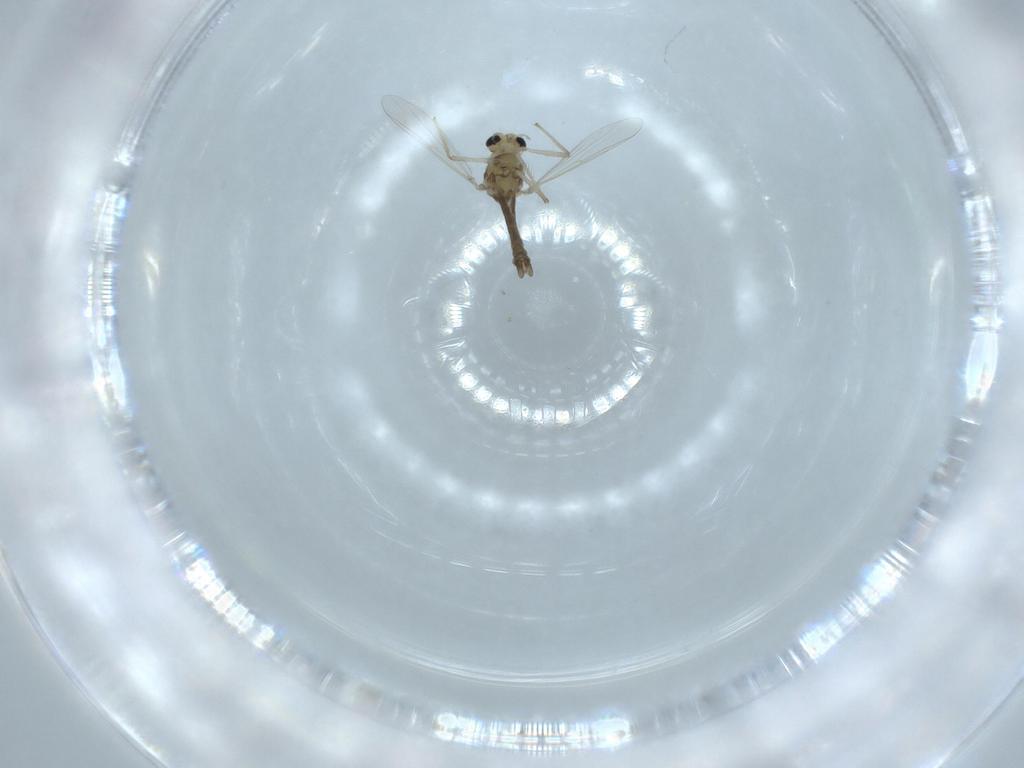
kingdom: Animalia
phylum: Arthropoda
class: Insecta
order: Diptera
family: Chironomidae
